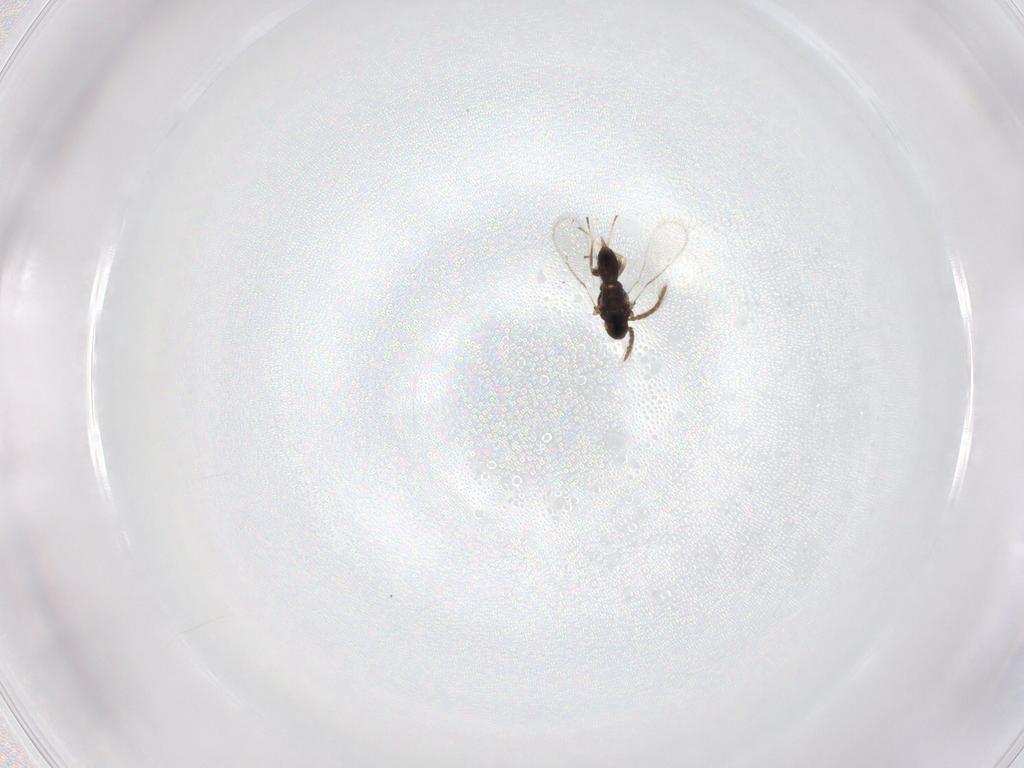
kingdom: Animalia
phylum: Arthropoda
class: Insecta
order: Hymenoptera
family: Eulophidae
